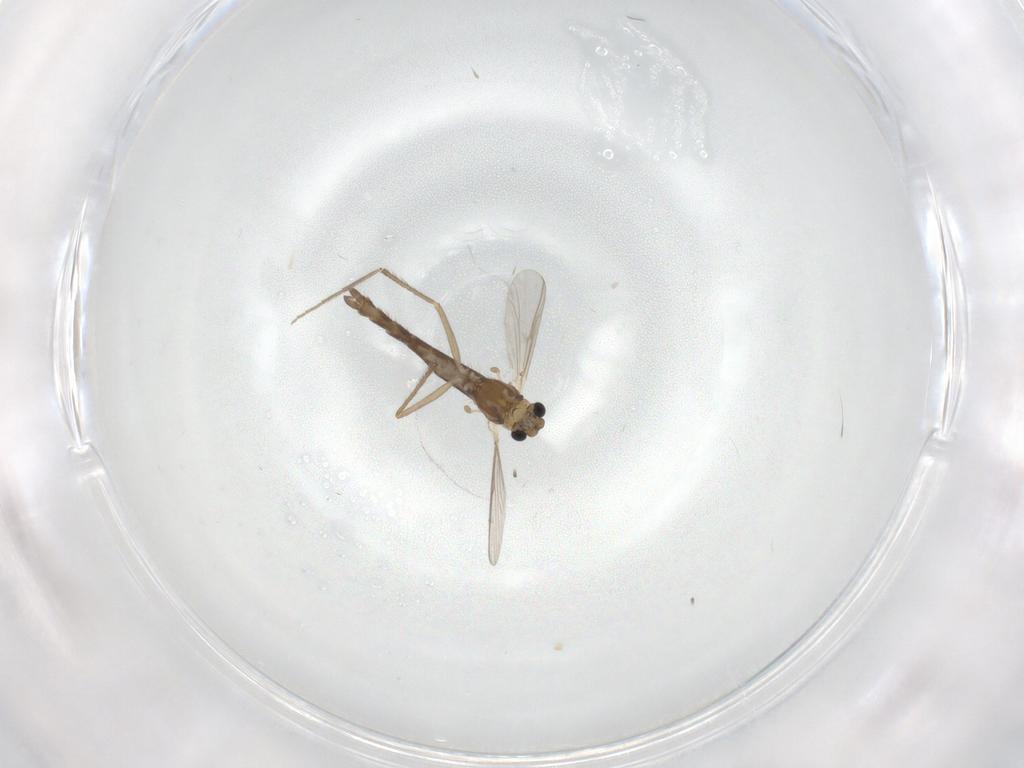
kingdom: Animalia
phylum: Arthropoda
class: Insecta
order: Diptera
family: Chironomidae
